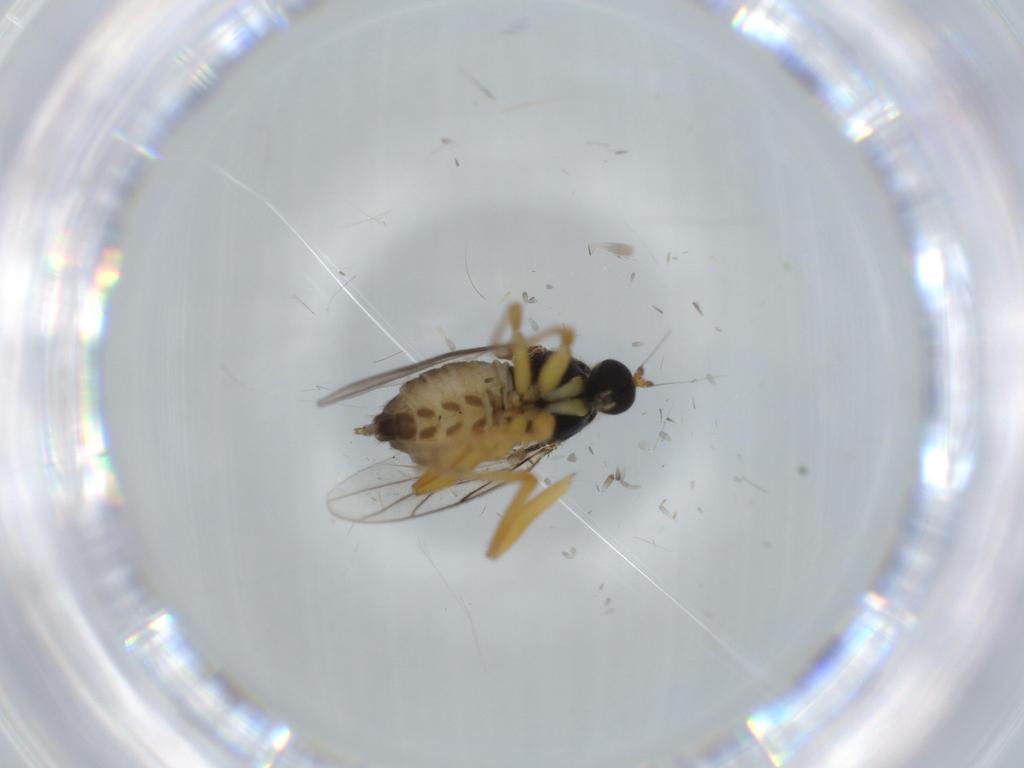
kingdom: Animalia
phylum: Arthropoda
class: Insecta
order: Diptera
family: Hybotidae
